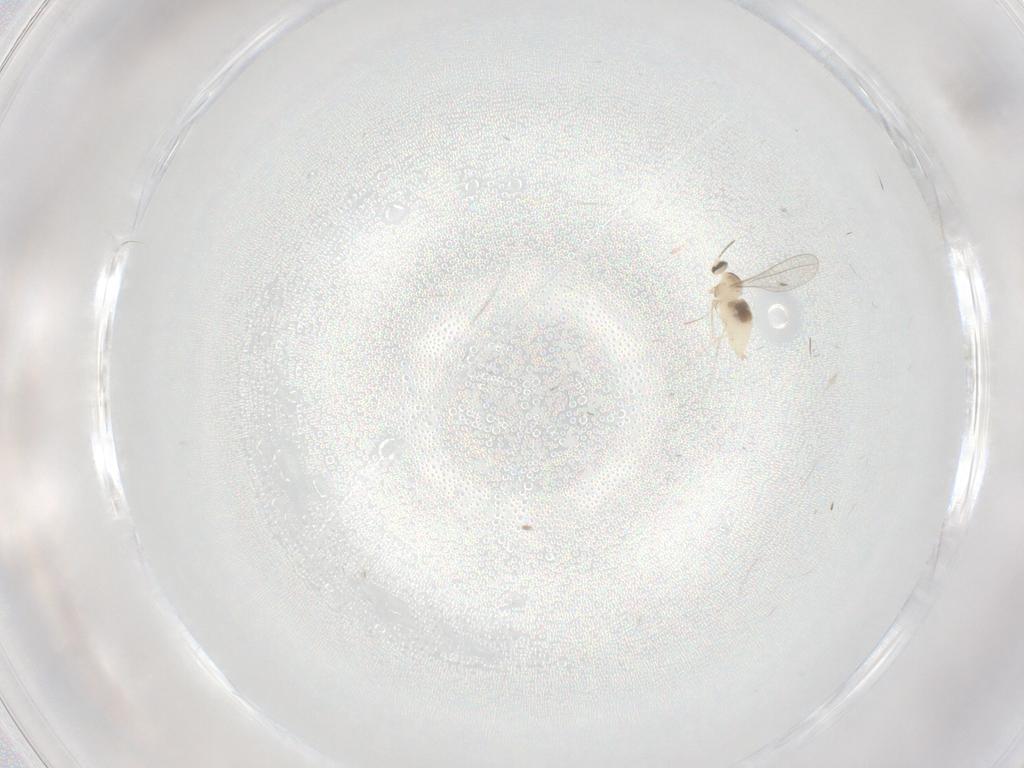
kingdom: Animalia
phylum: Arthropoda
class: Insecta
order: Diptera
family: Cecidomyiidae
